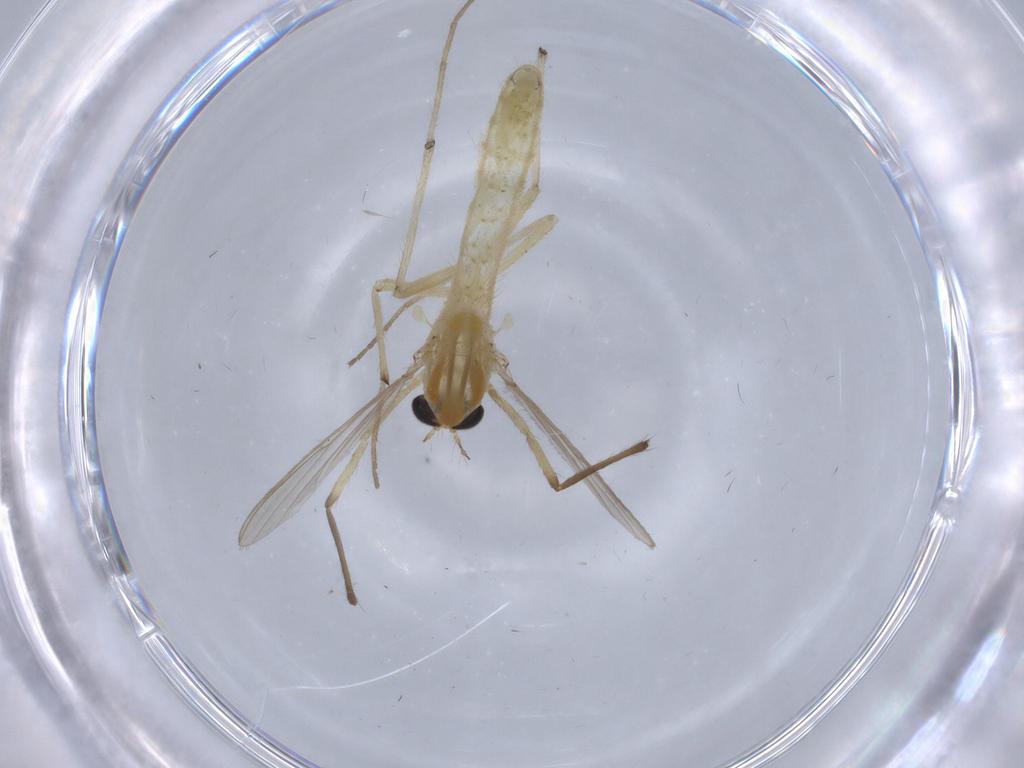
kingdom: Animalia
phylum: Arthropoda
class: Insecta
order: Diptera
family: Chironomidae
